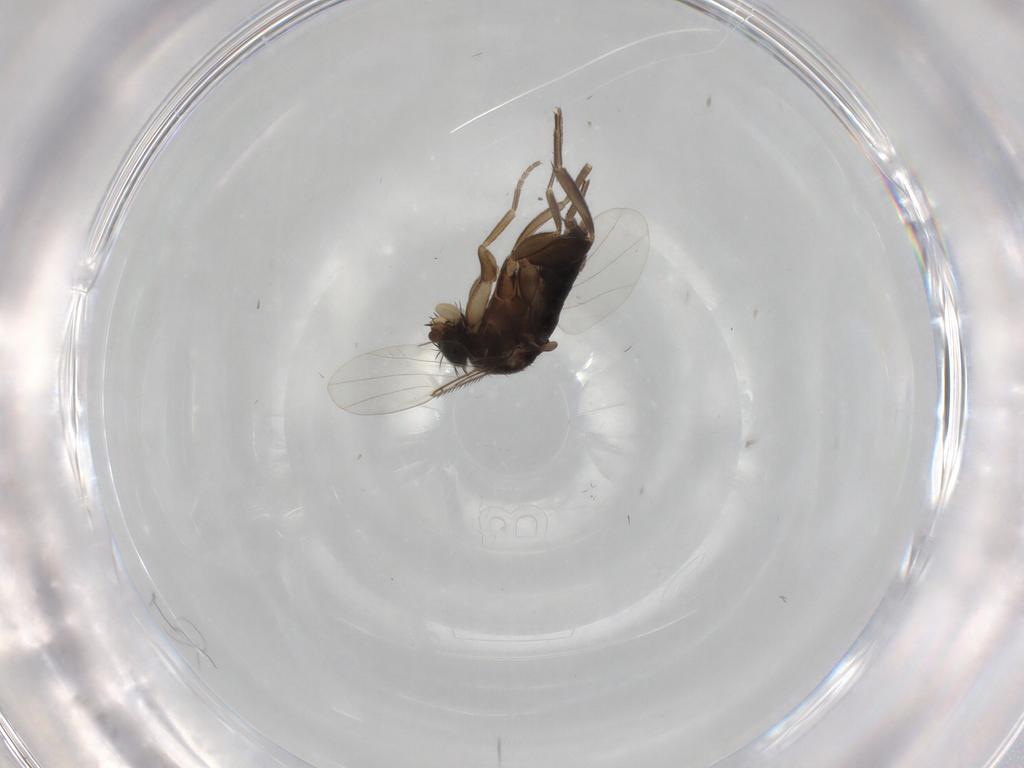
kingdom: Animalia
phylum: Arthropoda
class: Insecta
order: Diptera
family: Phoridae
